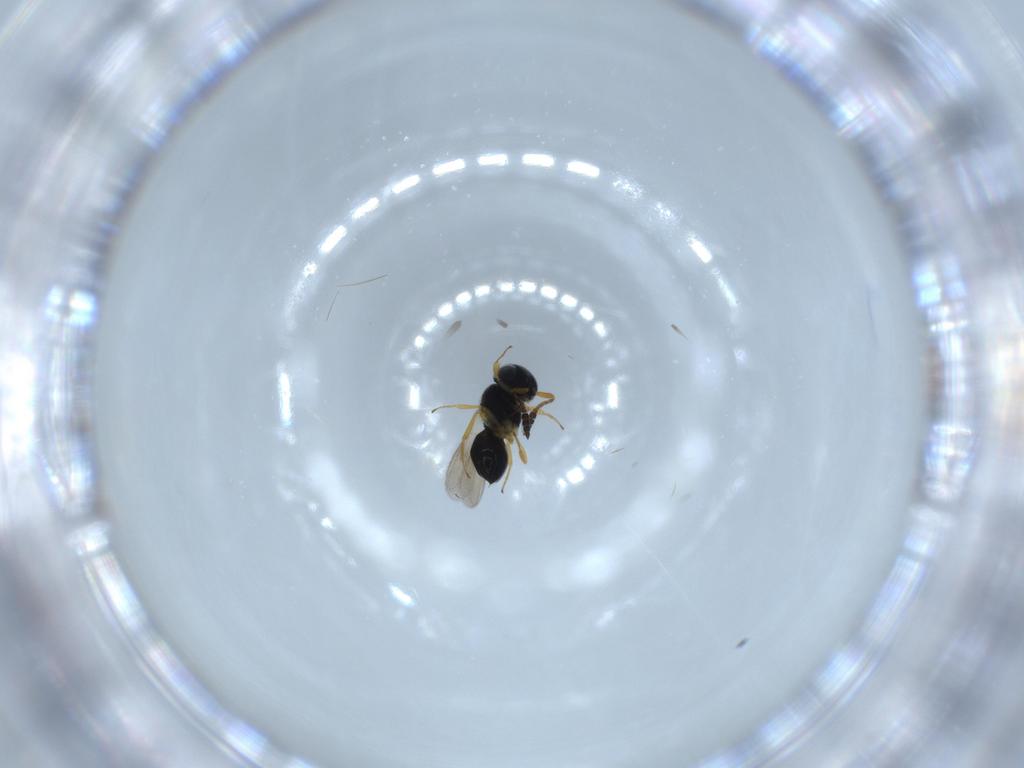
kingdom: Animalia
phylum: Arthropoda
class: Insecta
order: Hymenoptera
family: Scelionidae
